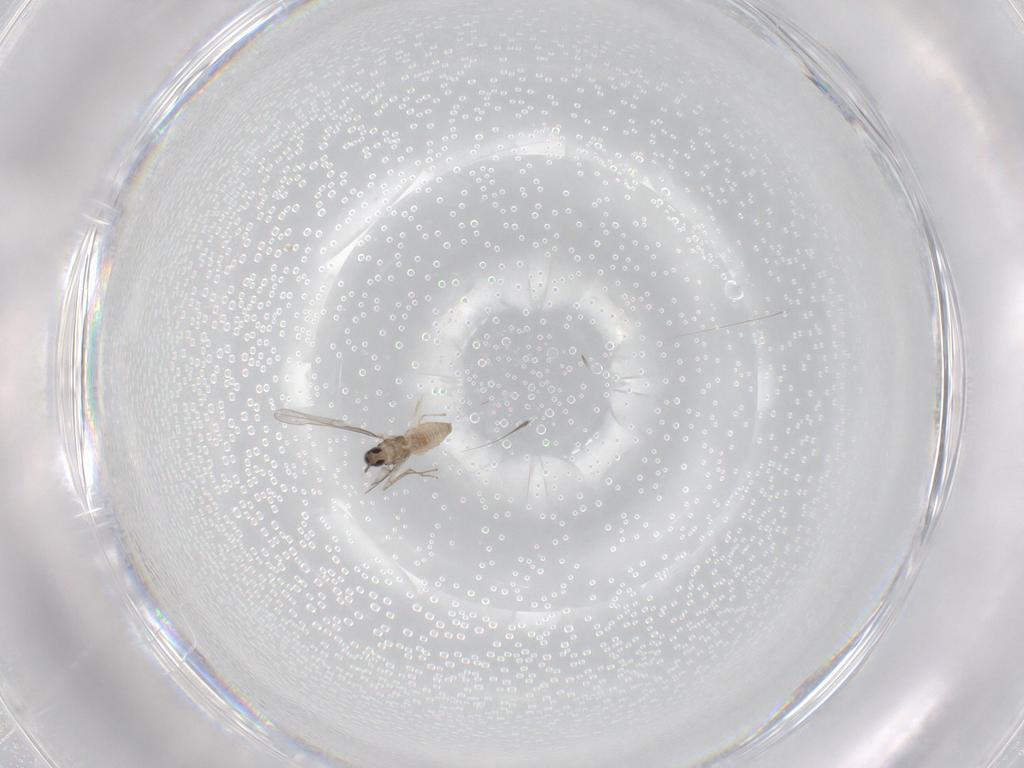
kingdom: Animalia
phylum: Arthropoda
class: Insecta
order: Diptera
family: Cecidomyiidae
